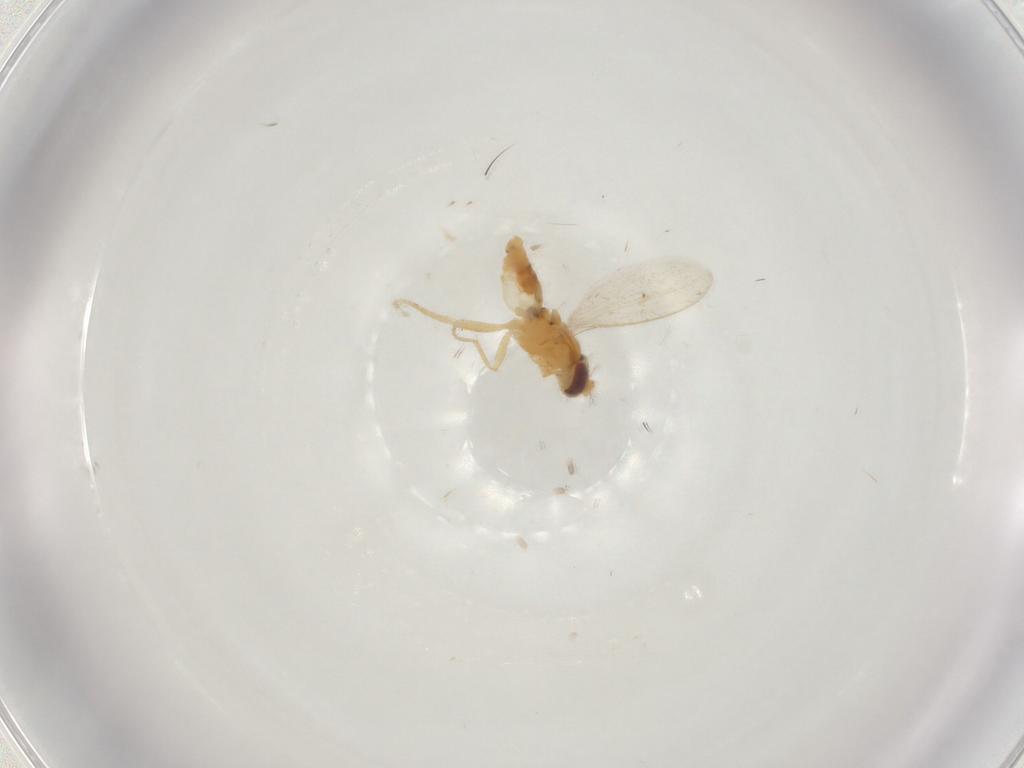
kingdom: Animalia
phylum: Arthropoda
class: Insecta
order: Diptera
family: Periscelididae
